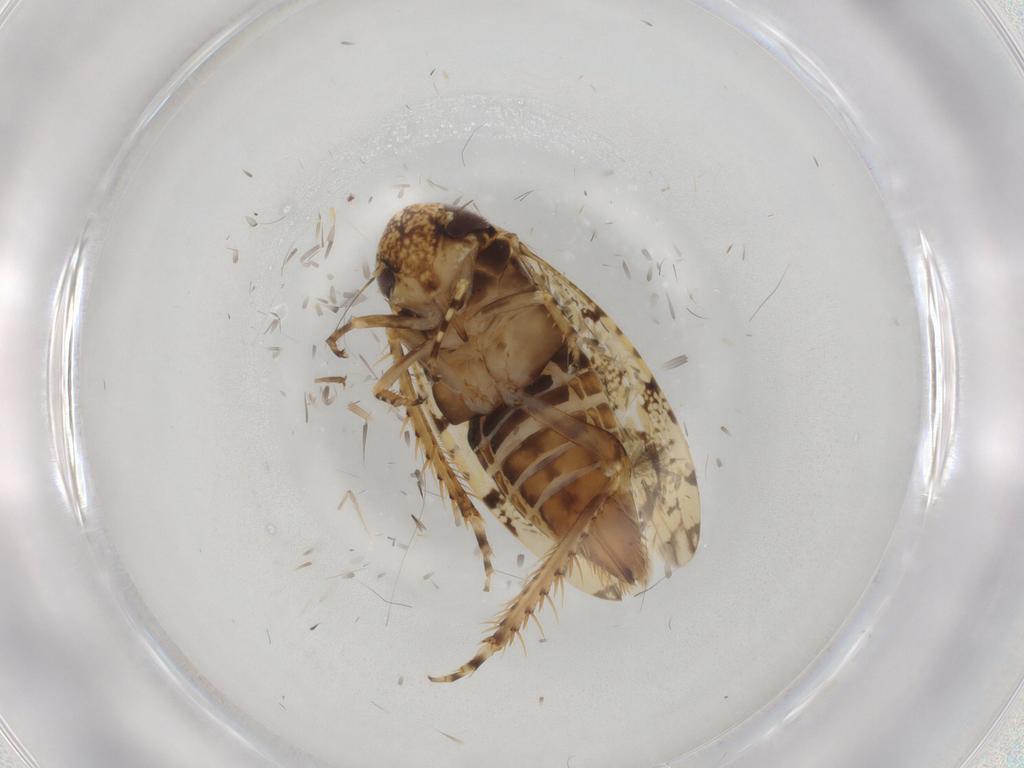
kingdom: Animalia
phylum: Arthropoda
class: Insecta
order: Hemiptera
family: Cicadellidae
